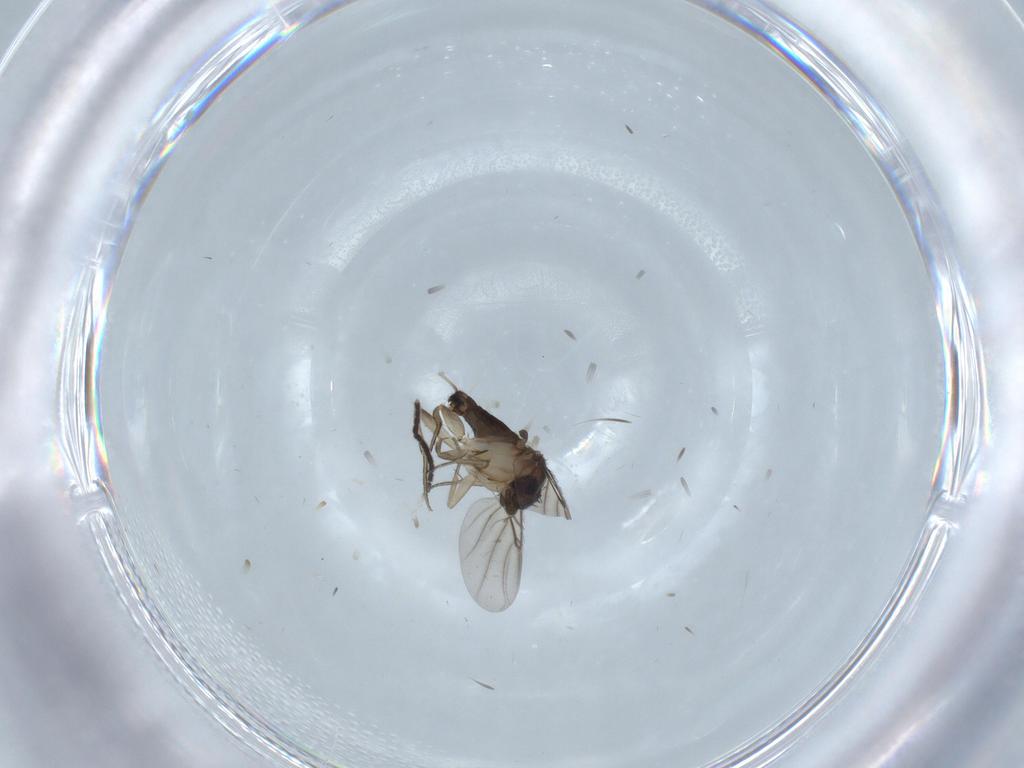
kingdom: Animalia
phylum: Arthropoda
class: Insecta
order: Diptera
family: Sciaridae
